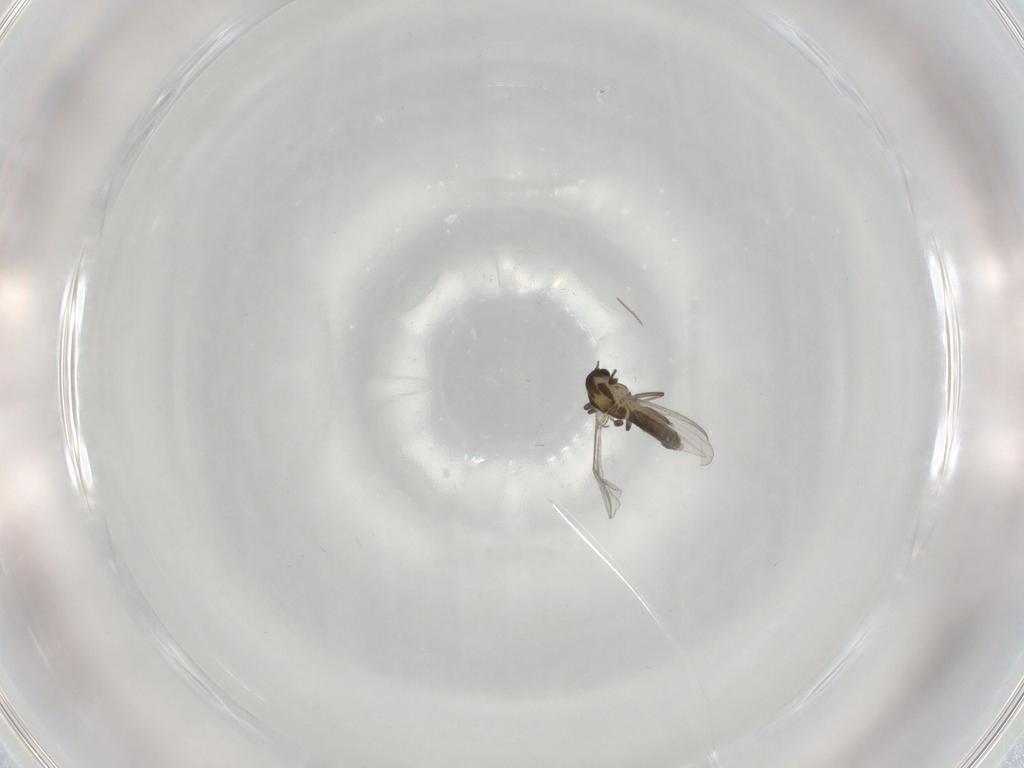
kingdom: Animalia
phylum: Arthropoda
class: Insecta
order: Diptera
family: Chironomidae
